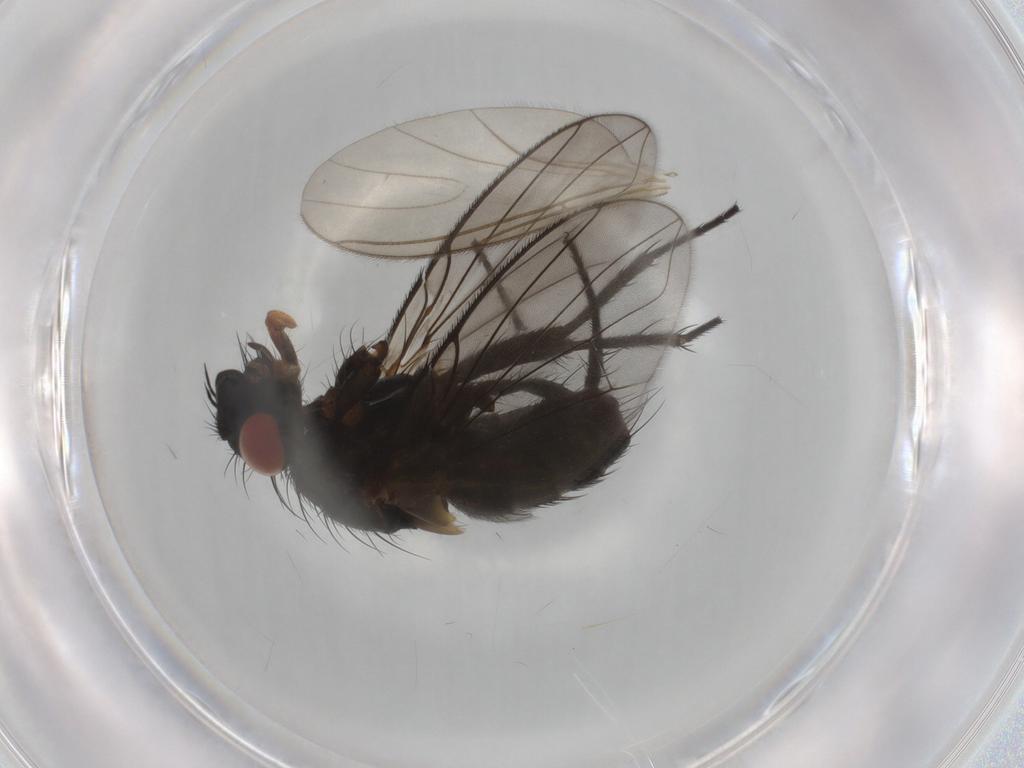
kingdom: Animalia
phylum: Arthropoda
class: Insecta
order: Diptera
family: Tachinidae
